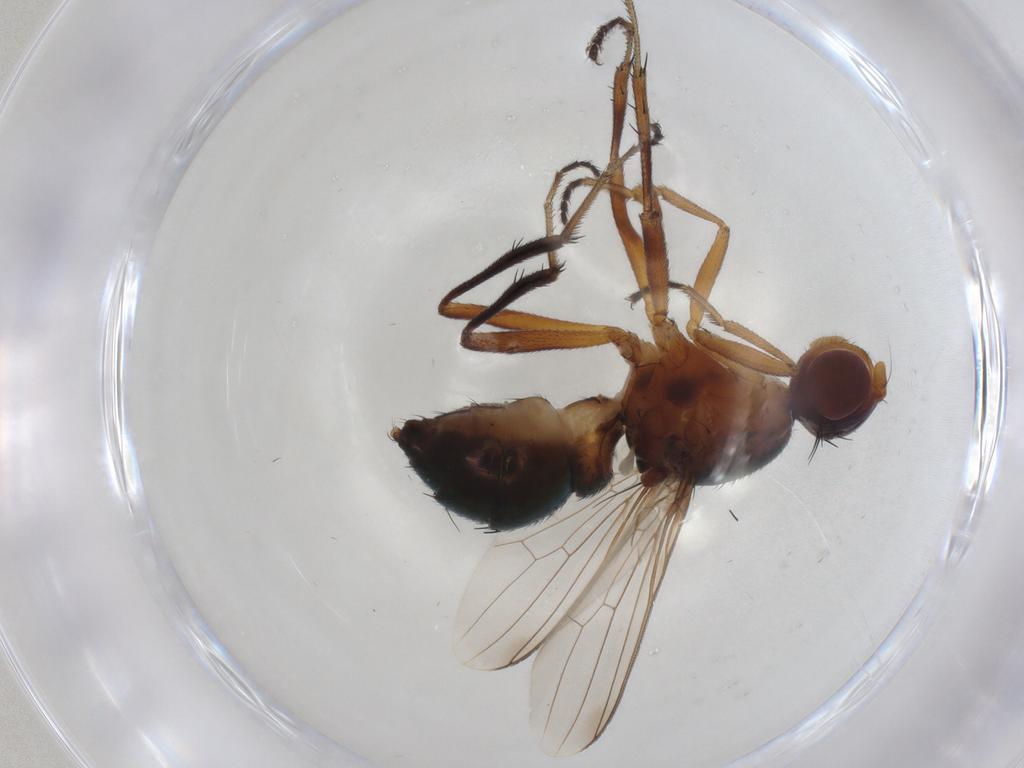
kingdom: Animalia
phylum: Arthropoda
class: Insecta
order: Diptera
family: Sepsidae
